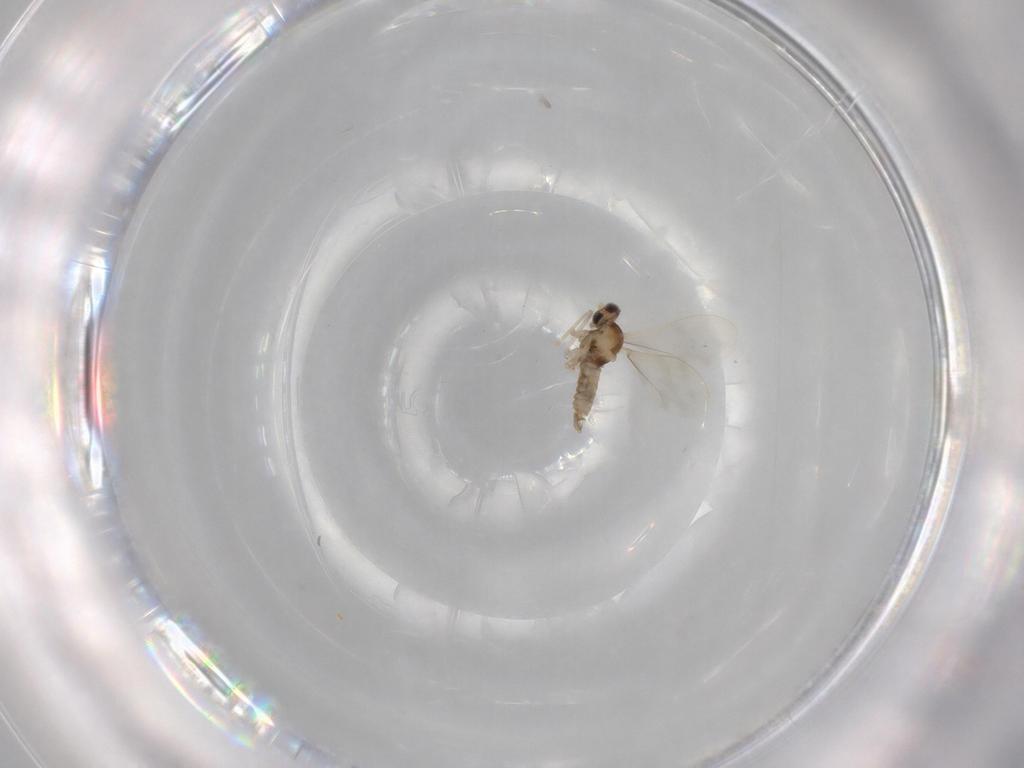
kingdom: Animalia
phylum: Arthropoda
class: Insecta
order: Diptera
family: Cecidomyiidae
